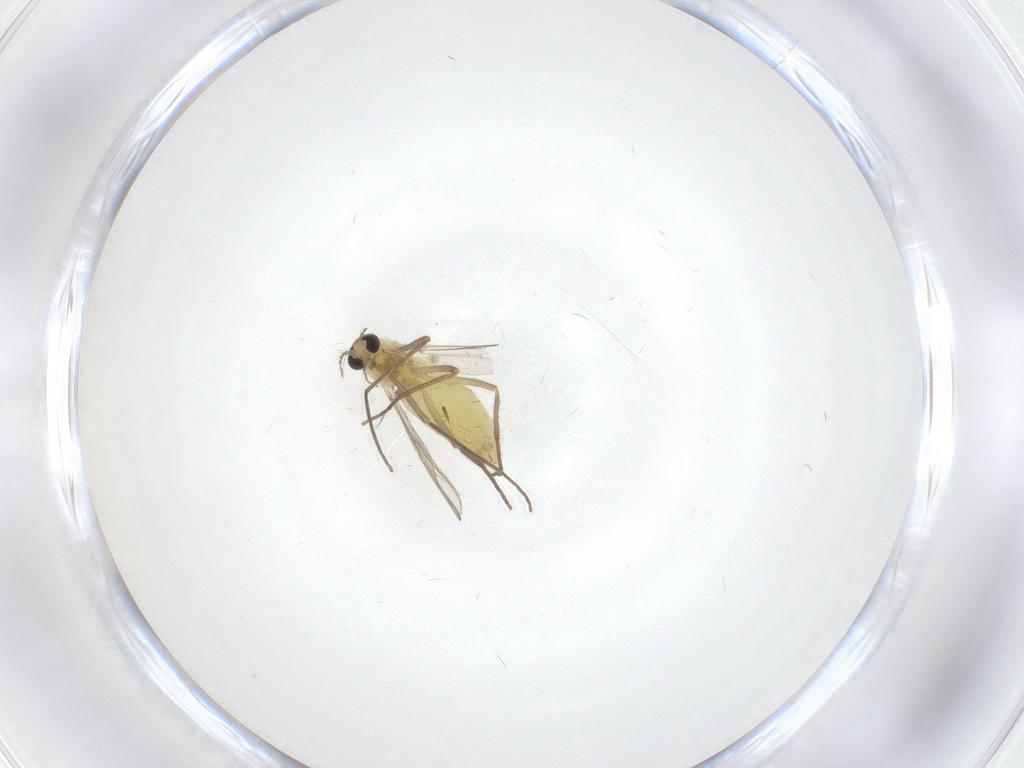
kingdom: Animalia
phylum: Arthropoda
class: Insecta
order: Diptera
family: Chironomidae
